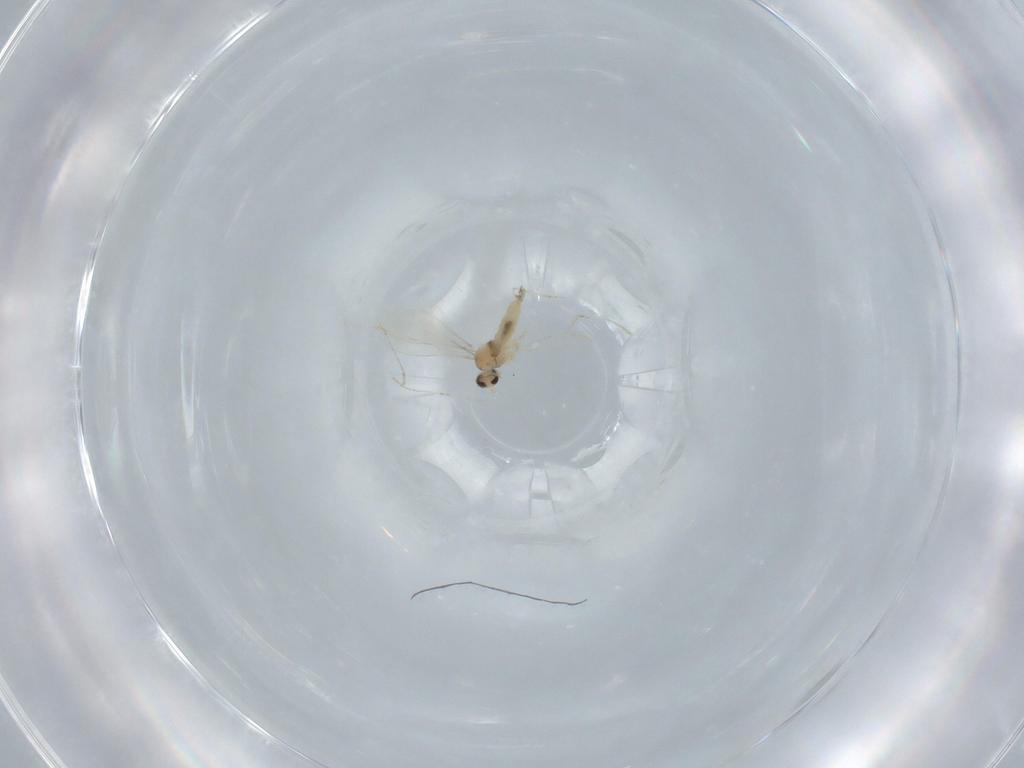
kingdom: Animalia
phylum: Arthropoda
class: Insecta
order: Diptera
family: Cecidomyiidae
